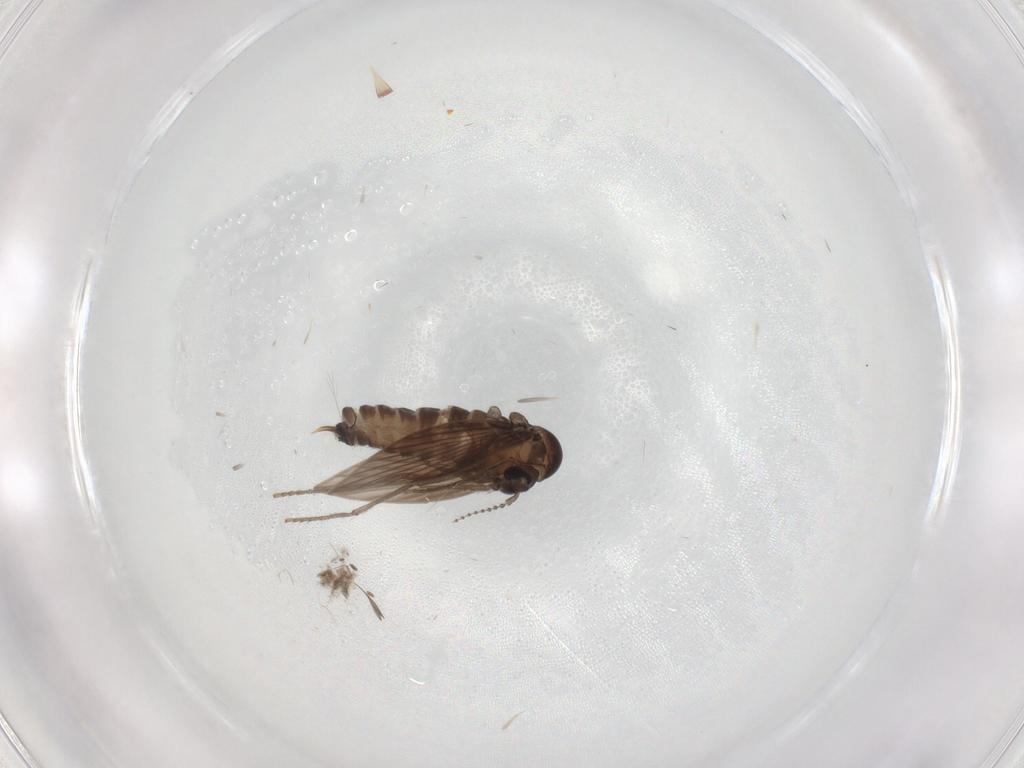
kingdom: Animalia
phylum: Arthropoda
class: Insecta
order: Diptera
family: Psychodidae
